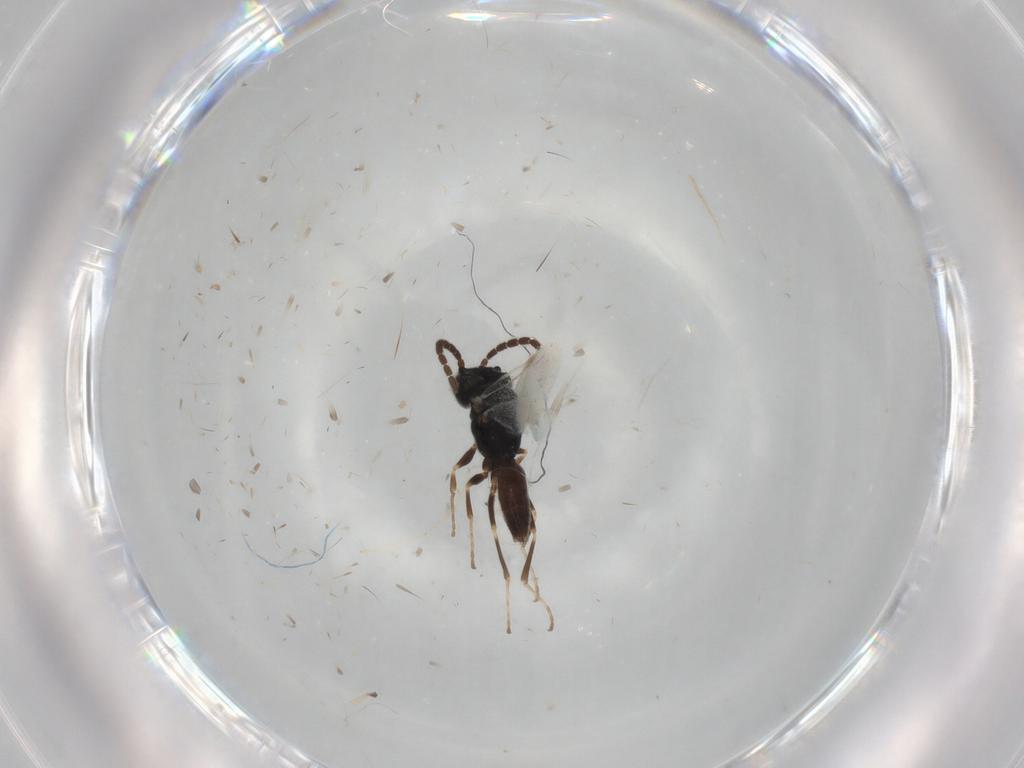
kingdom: Animalia
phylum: Arthropoda
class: Insecta
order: Hymenoptera
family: Dryinidae
